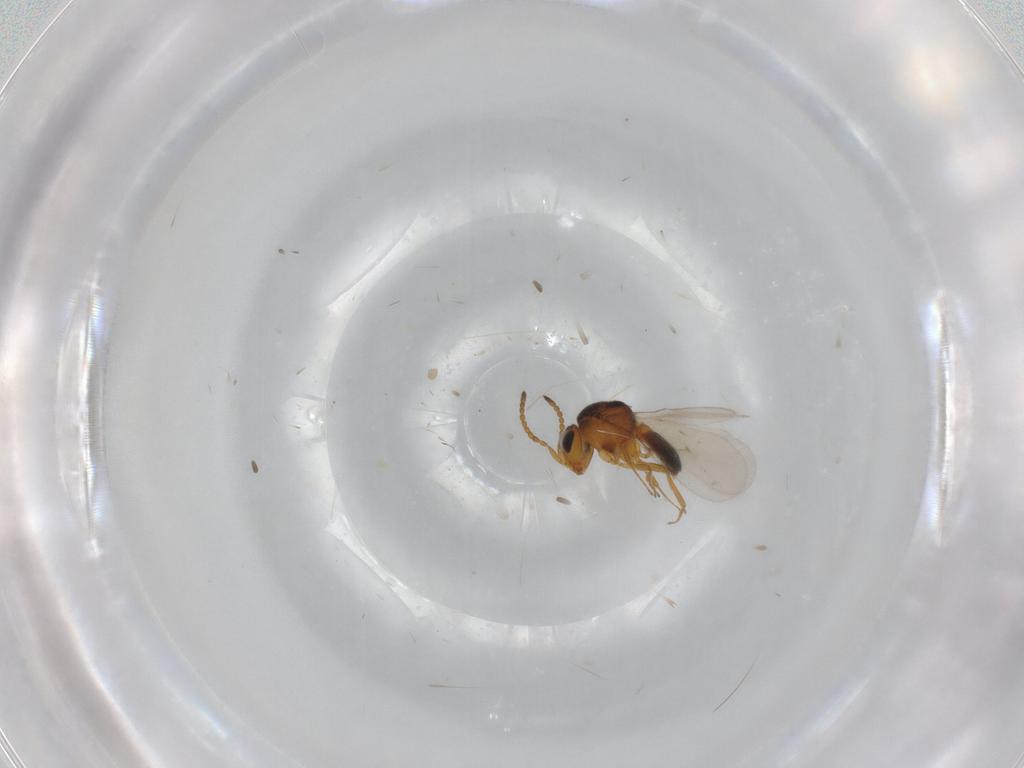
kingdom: Animalia
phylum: Arthropoda
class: Insecta
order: Hymenoptera
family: Scelionidae
